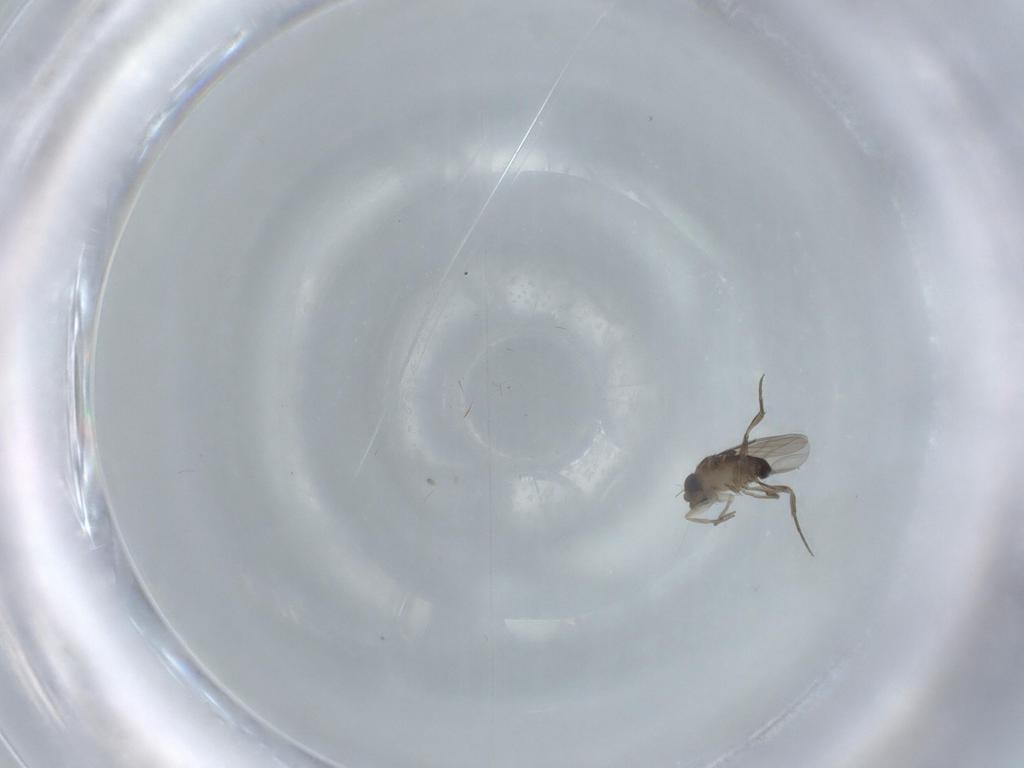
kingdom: Animalia
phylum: Arthropoda
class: Insecta
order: Diptera
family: Phoridae
